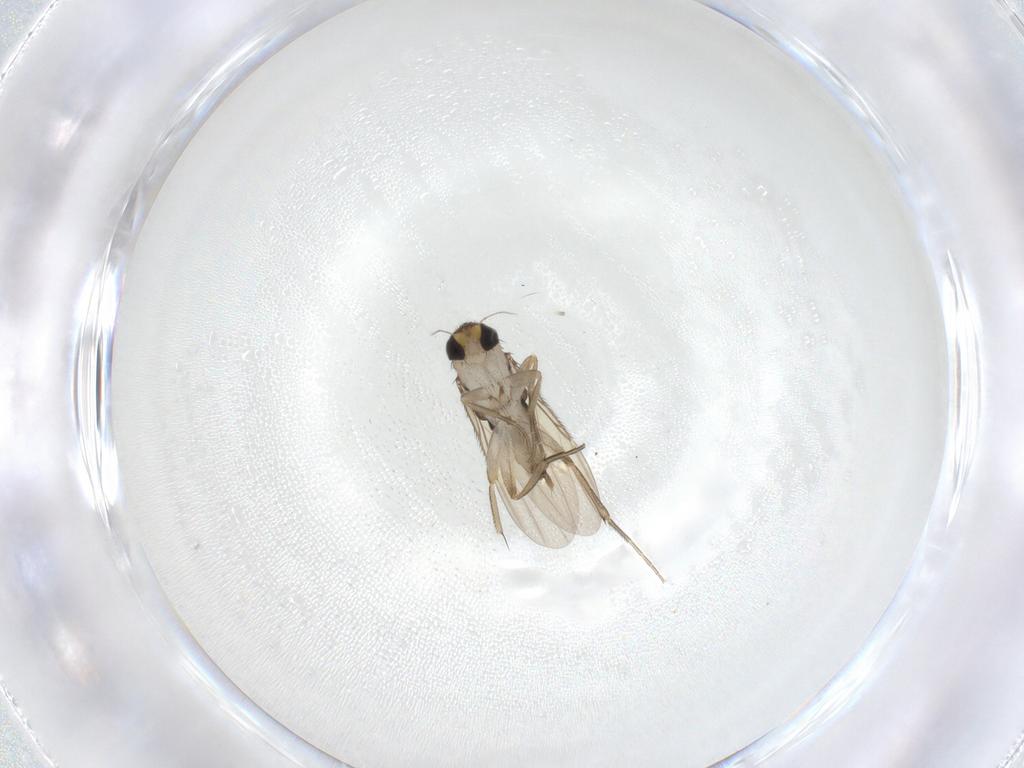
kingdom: Animalia
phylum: Arthropoda
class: Insecta
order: Diptera
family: Phoridae
